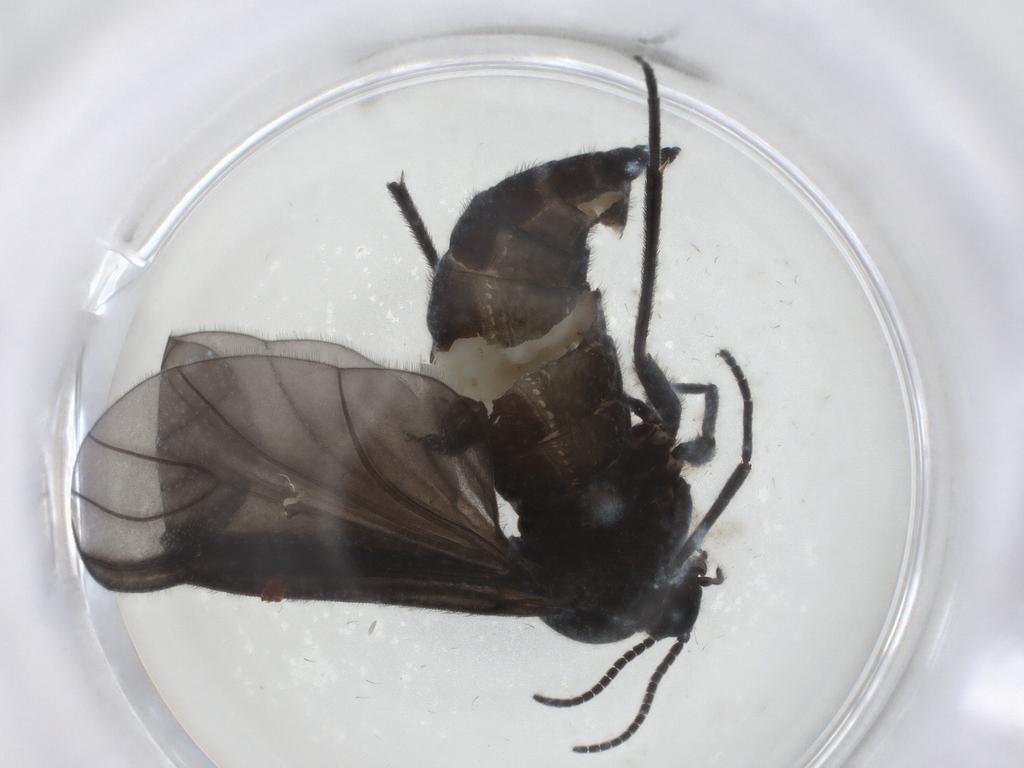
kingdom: Animalia
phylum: Arthropoda
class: Insecta
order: Diptera
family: Sciaridae
